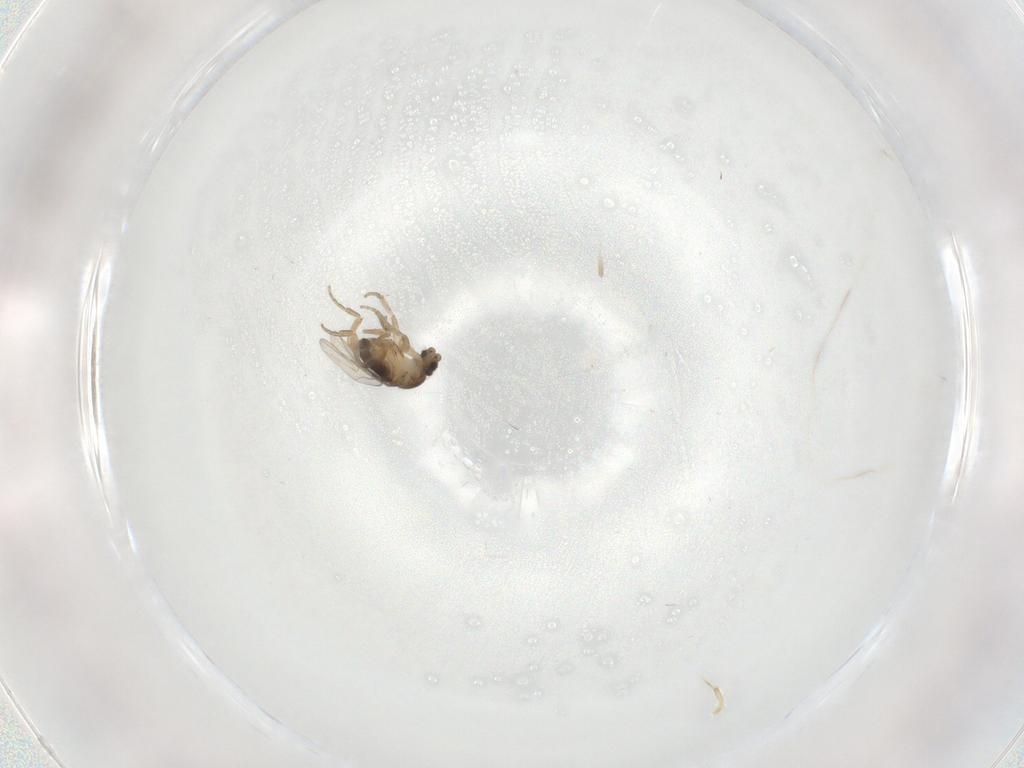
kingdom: Animalia
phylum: Arthropoda
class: Insecta
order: Diptera
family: Phoridae
